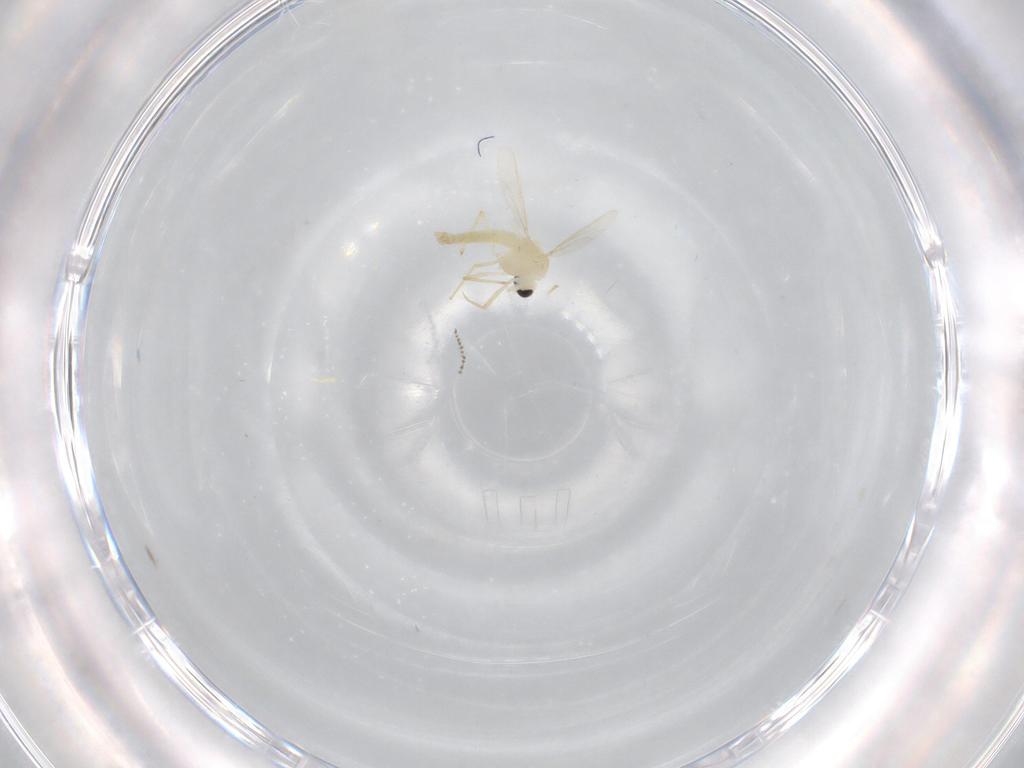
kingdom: Animalia
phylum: Arthropoda
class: Insecta
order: Diptera
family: Chironomidae
